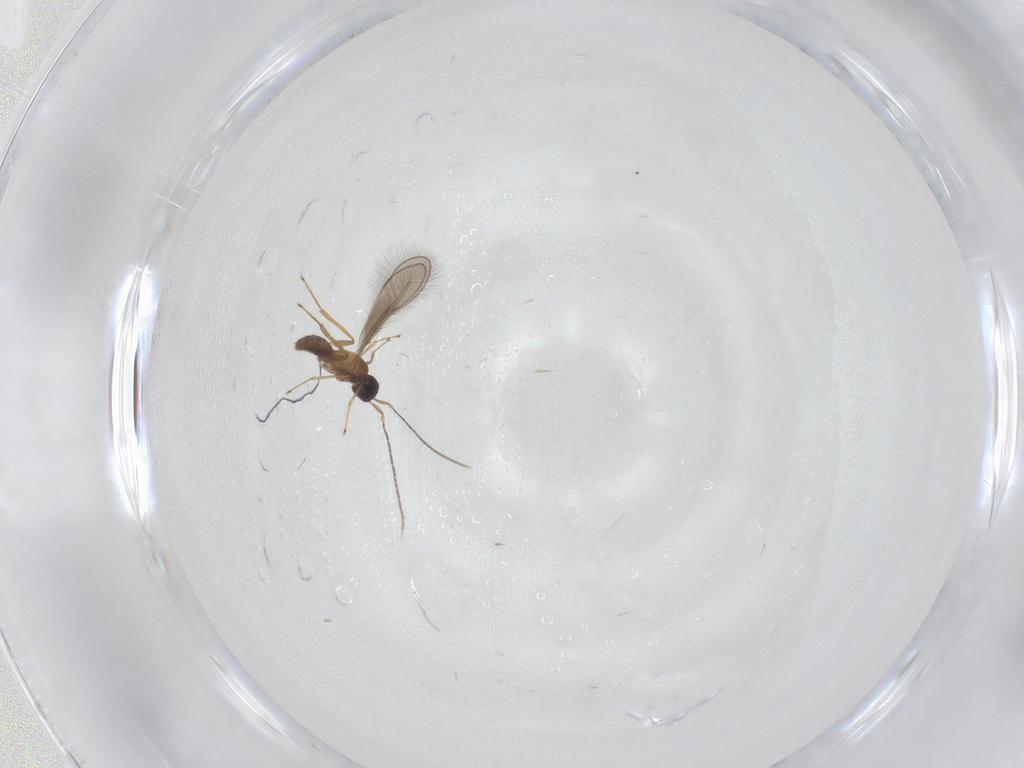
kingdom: Animalia
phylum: Arthropoda
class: Insecta
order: Hymenoptera
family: Mymaridae
